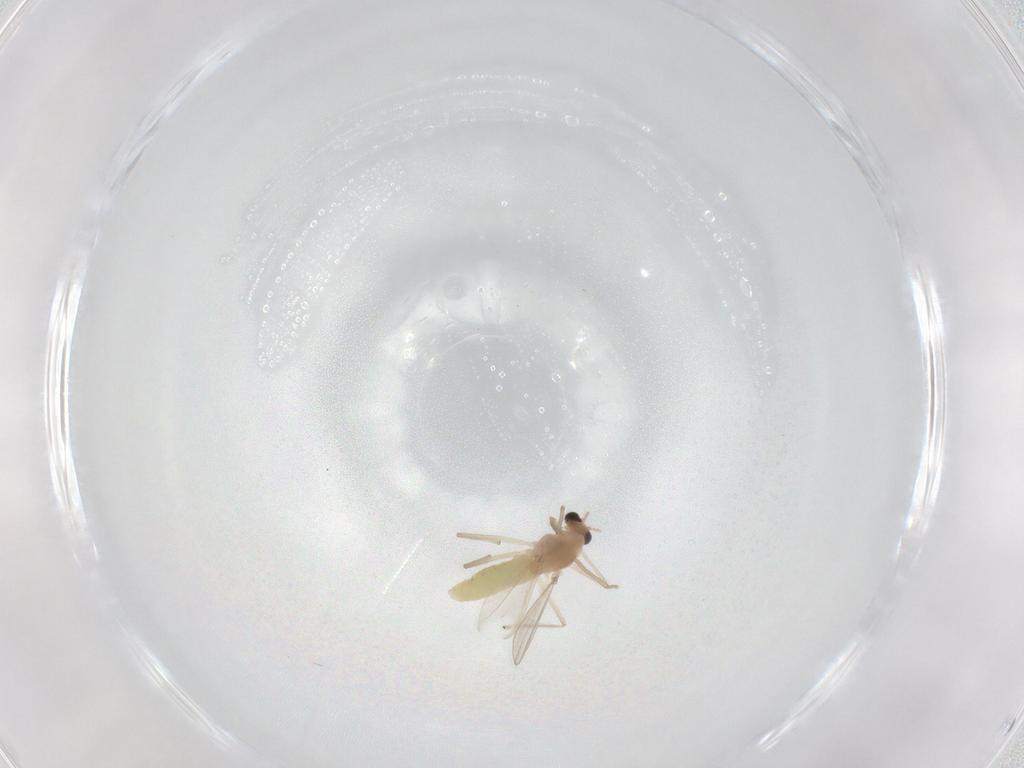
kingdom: Animalia
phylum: Arthropoda
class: Insecta
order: Diptera
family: Chironomidae
